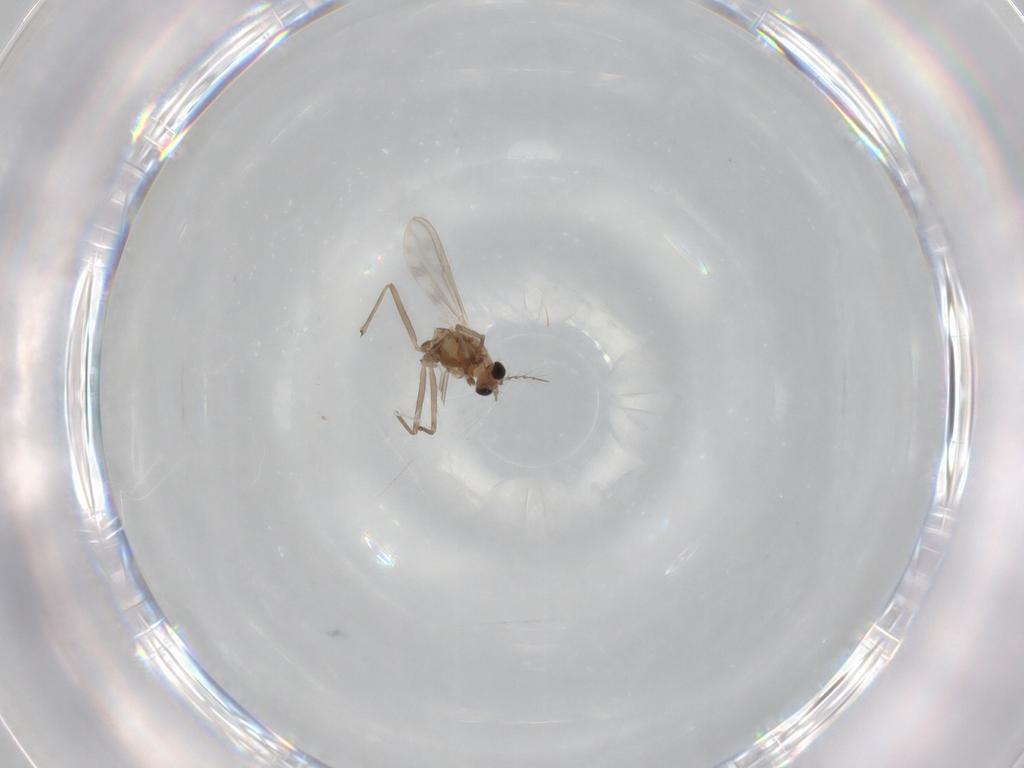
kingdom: Animalia
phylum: Arthropoda
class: Insecta
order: Diptera
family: Chironomidae
